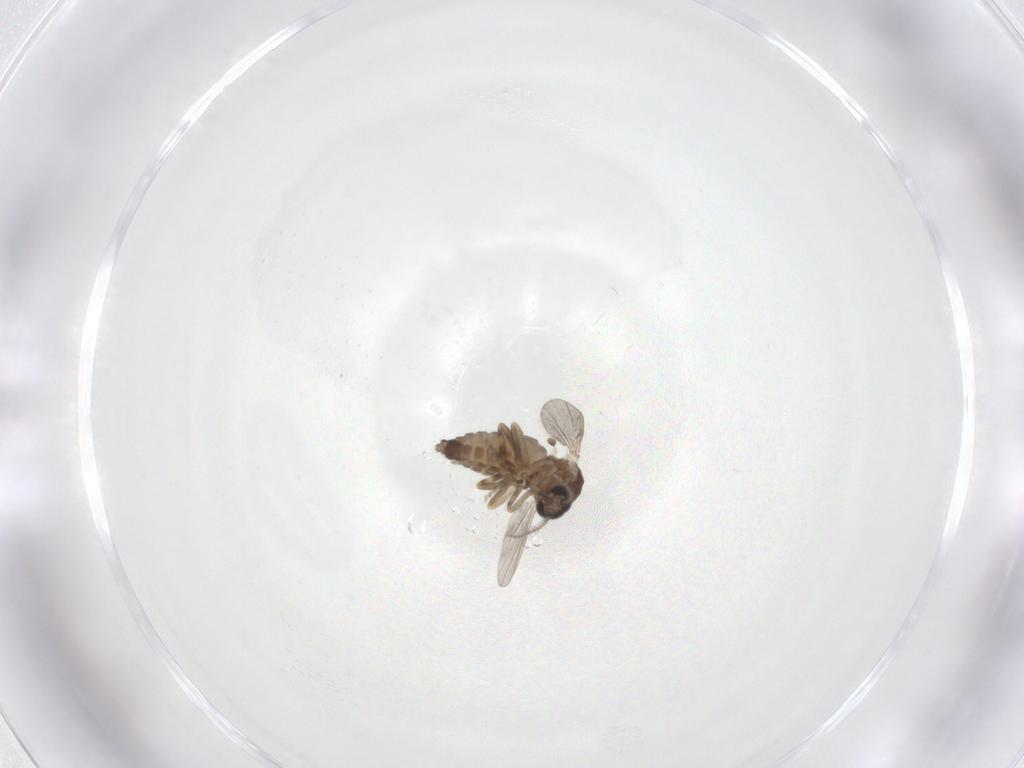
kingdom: Animalia
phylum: Arthropoda
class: Insecta
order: Diptera
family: Ceratopogonidae
